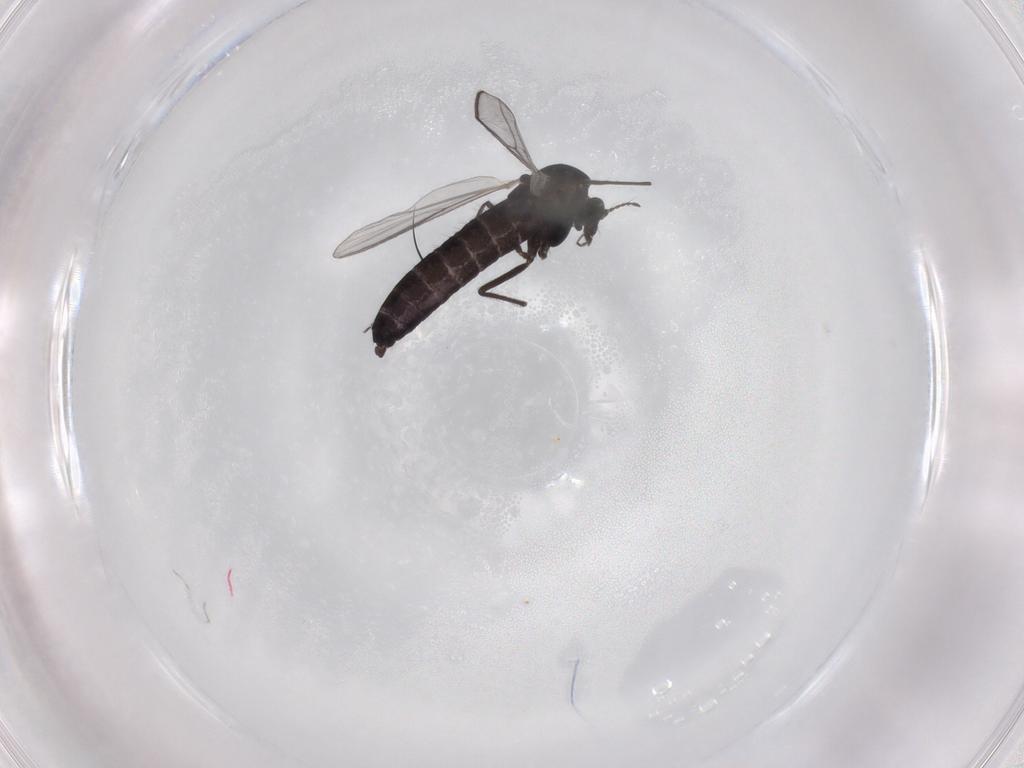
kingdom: Animalia
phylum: Arthropoda
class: Insecta
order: Diptera
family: Chironomidae
